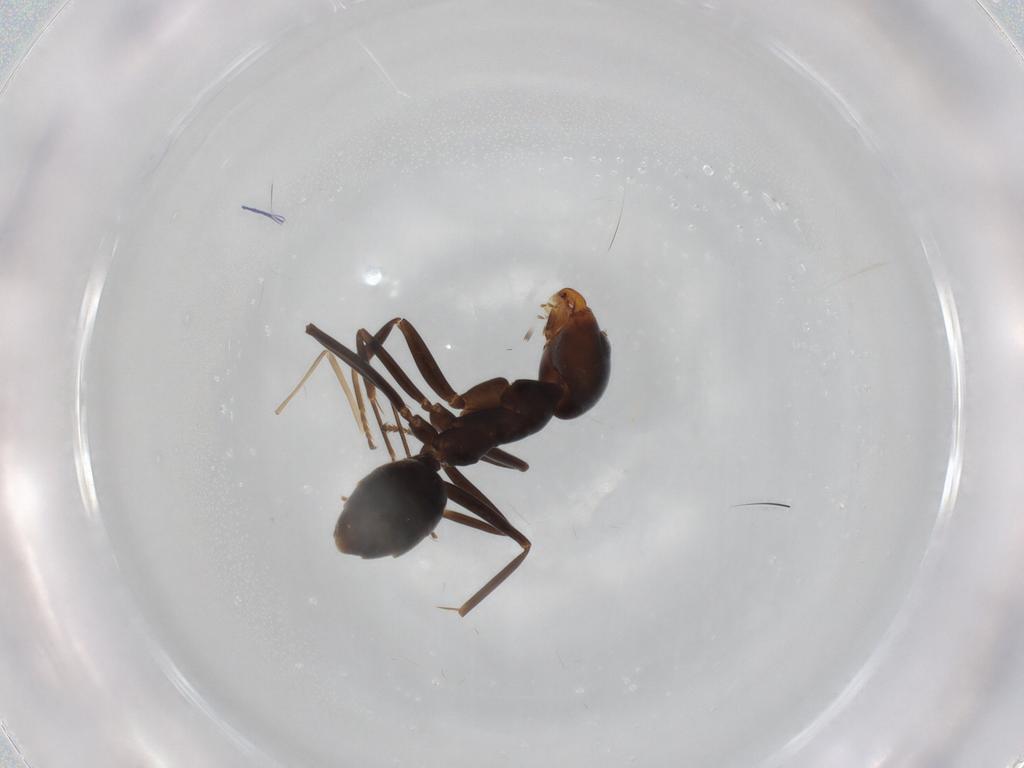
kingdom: Animalia
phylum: Arthropoda
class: Insecta
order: Hymenoptera
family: Formicidae
